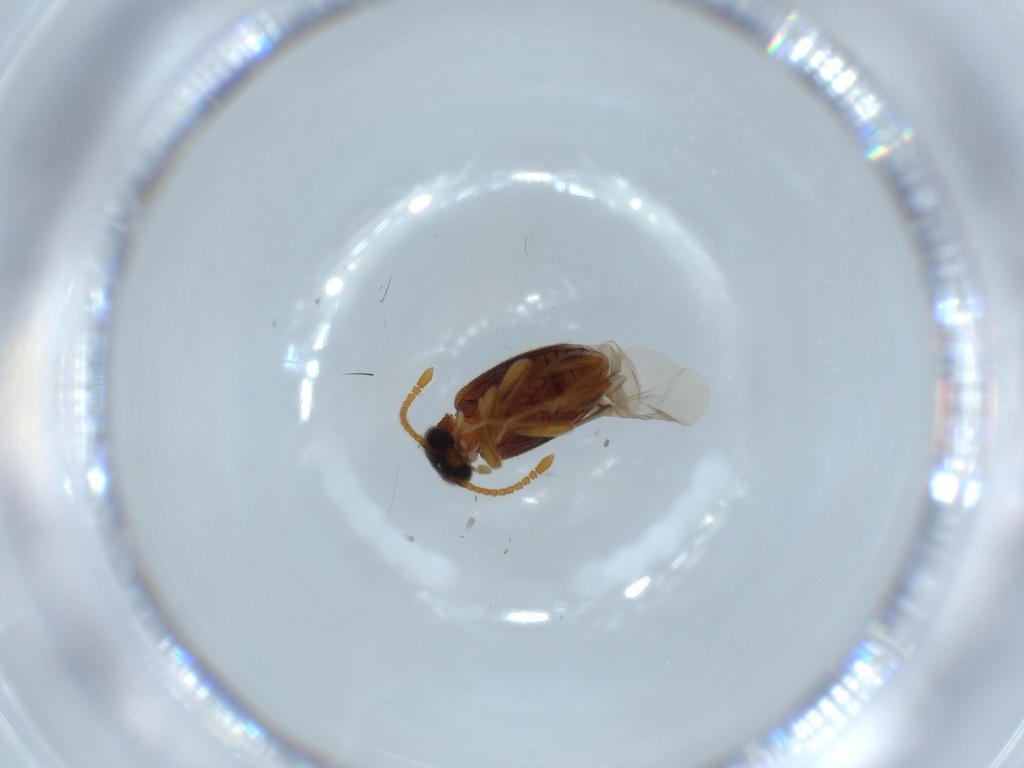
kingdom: Animalia
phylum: Arthropoda
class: Insecta
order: Coleoptera
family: Aderidae
